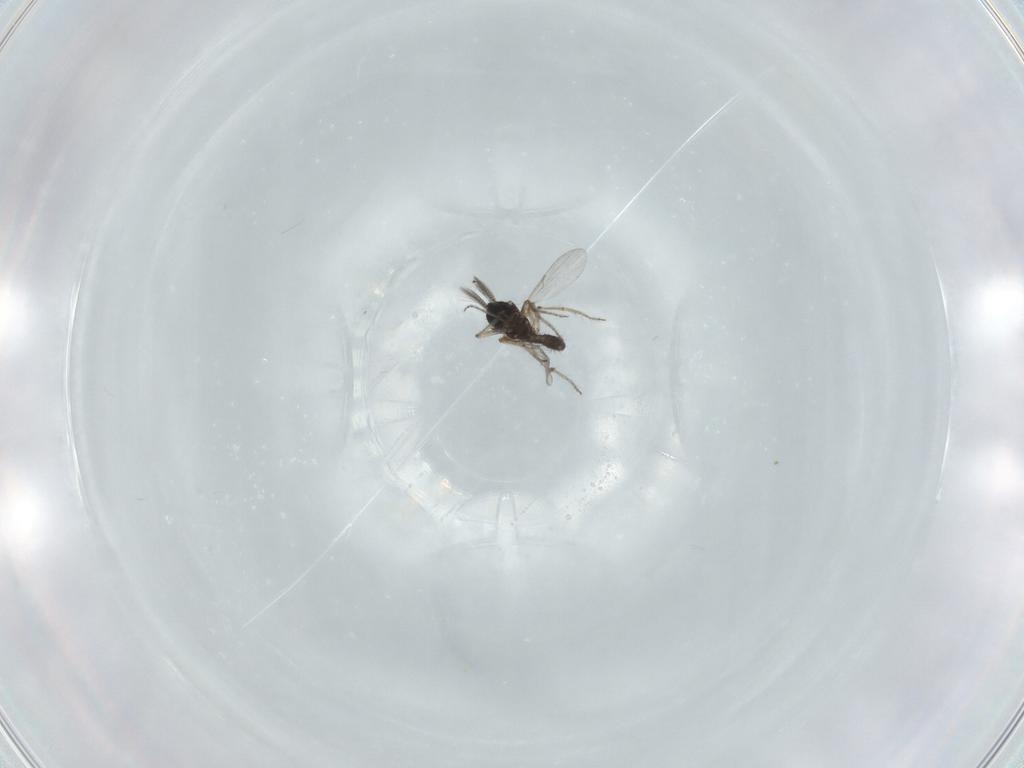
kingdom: Animalia
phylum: Arthropoda
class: Insecta
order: Diptera
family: Ceratopogonidae
